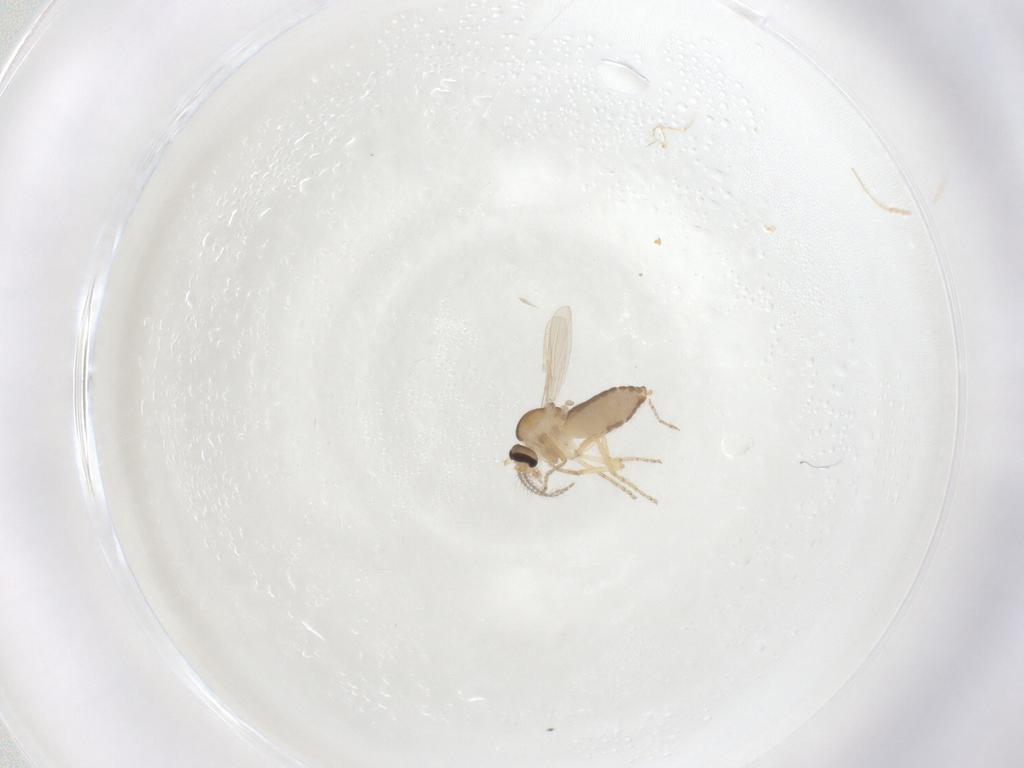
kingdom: Animalia
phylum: Arthropoda
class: Insecta
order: Diptera
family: Ceratopogonidae
